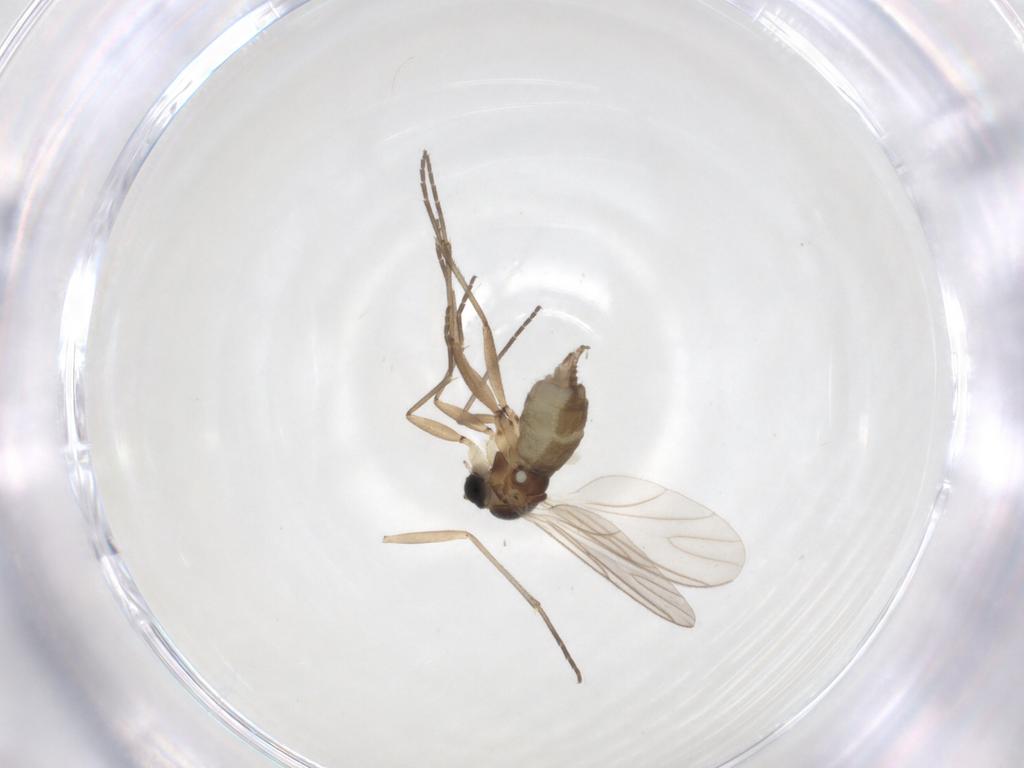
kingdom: Animalia
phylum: Arthropoda
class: Insecta
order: Diptera
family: Sciaridae
